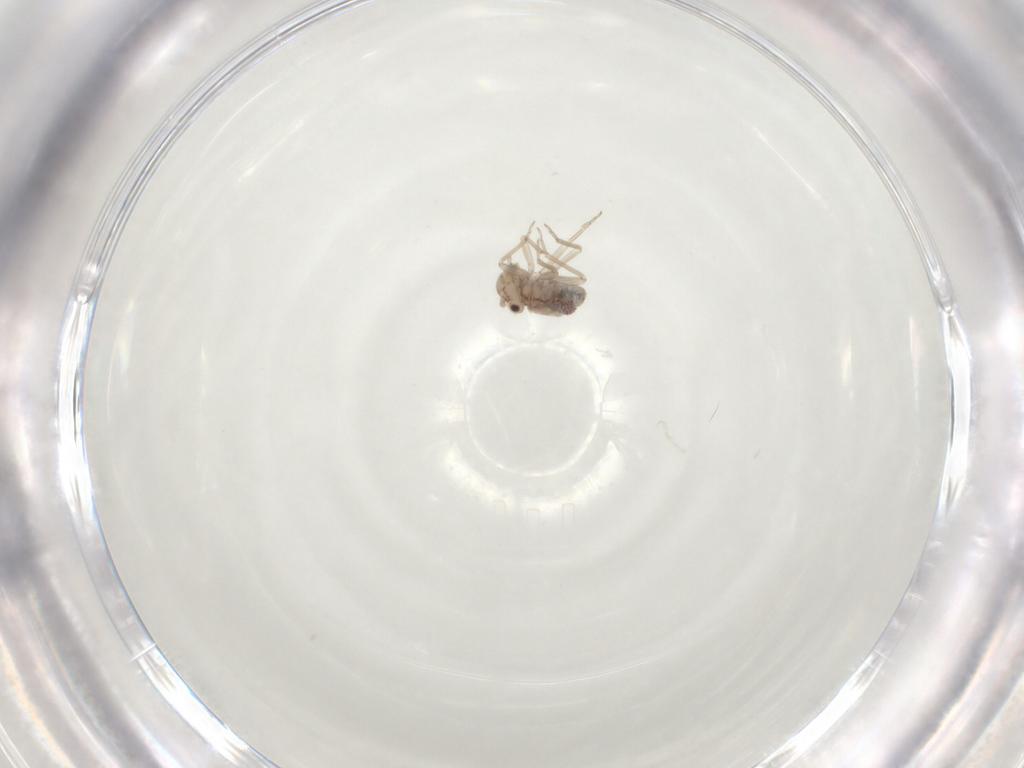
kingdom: Animalia
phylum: Arthropoda
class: Insecta
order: Psocodea
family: Lachesillidae
